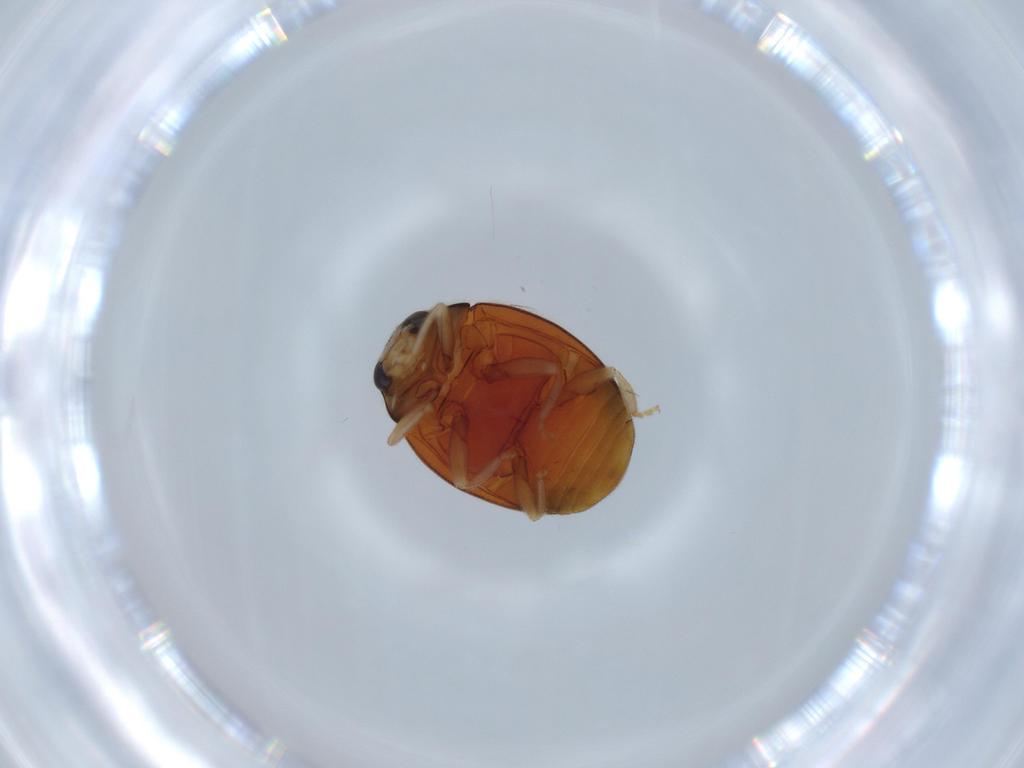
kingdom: Animalia
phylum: Arthropoda
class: Insecta
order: Coleoptera
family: Coccinellidae
